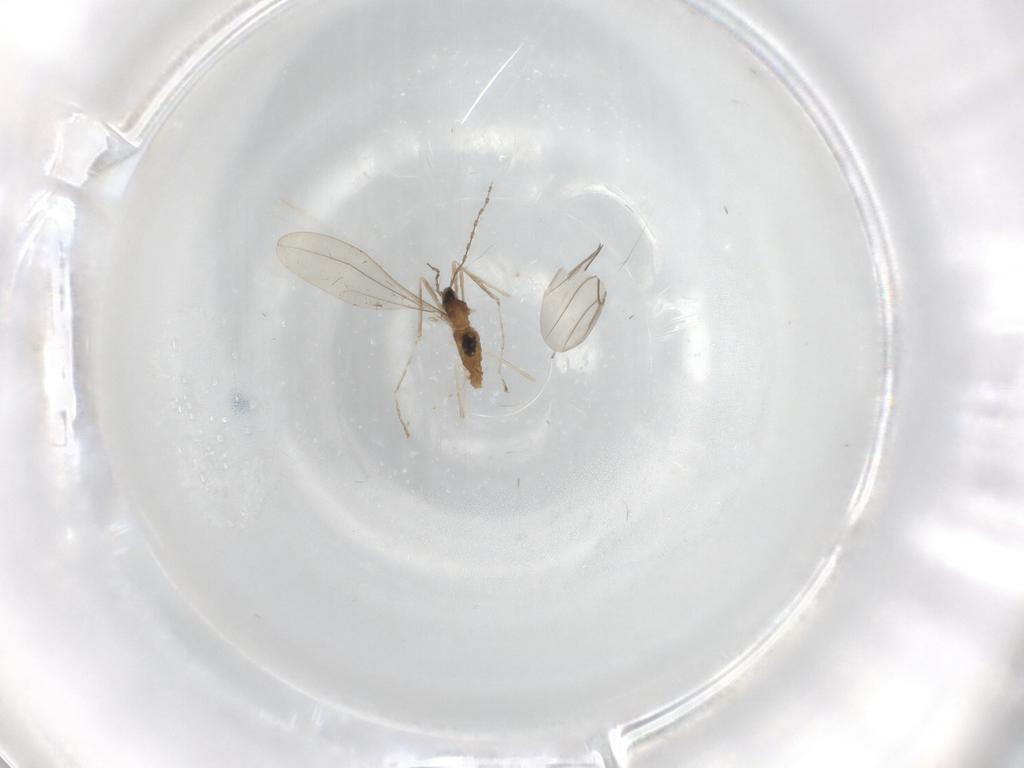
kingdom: Animalia
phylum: Arthropoda
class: Insecta
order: Diptera
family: Cecidomyiidae
